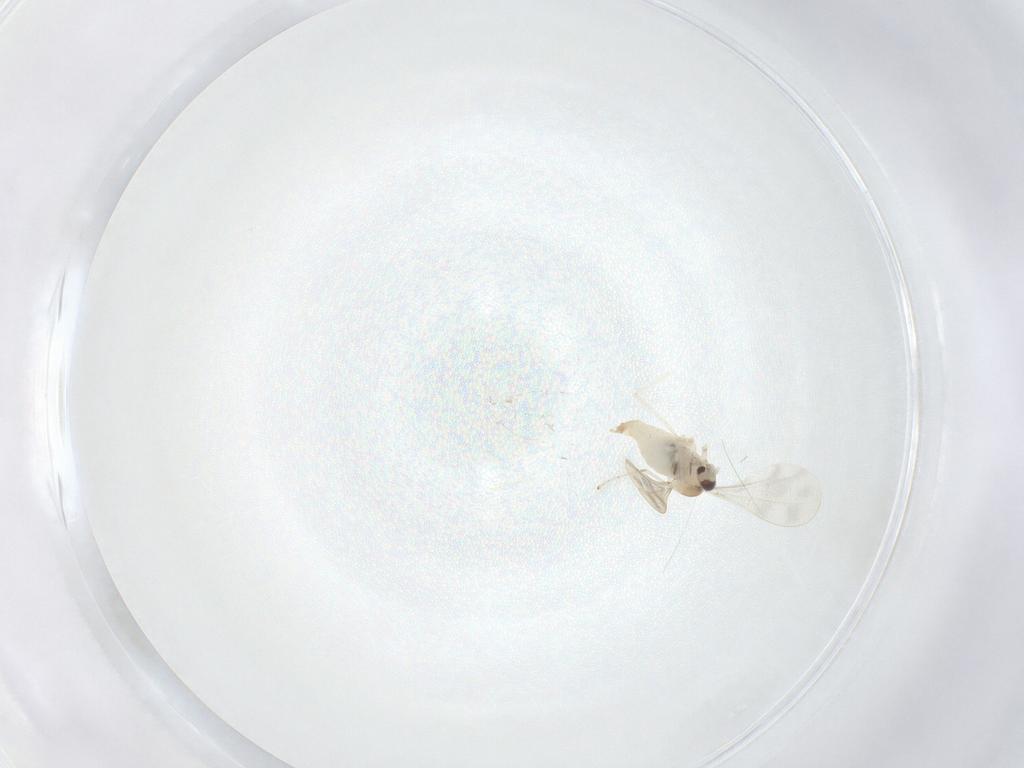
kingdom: Animalia
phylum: Arthropoda
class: Insecta
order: Diptera
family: Cecidomyiidae
